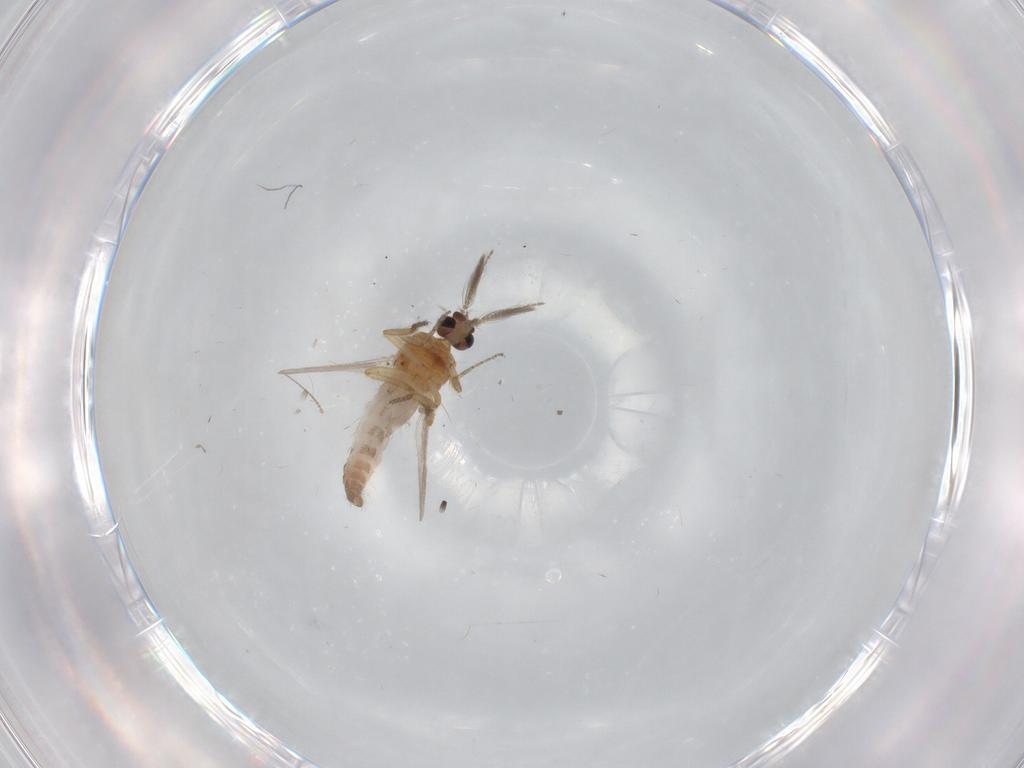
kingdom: Animalia
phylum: Arthropoda
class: Insecta
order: Diptera
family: Ceratopogonidae
